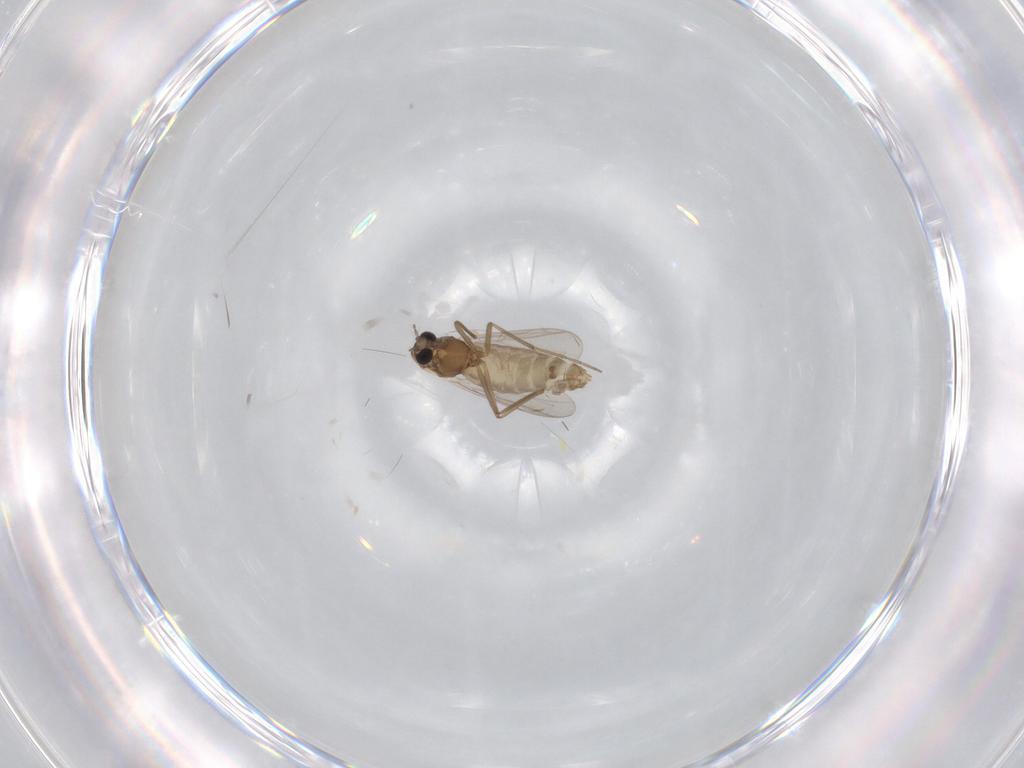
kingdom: Animalia
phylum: Arthropoda
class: Insecta
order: Diptera
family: Chironomidae
